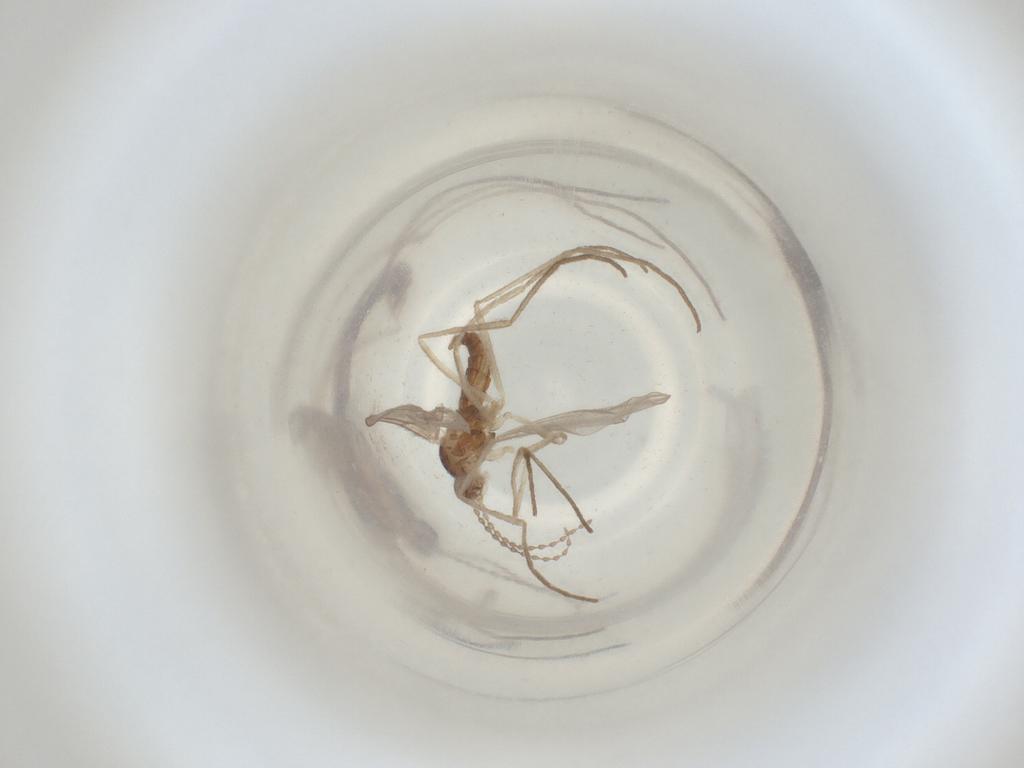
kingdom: Animalia
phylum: Arthropoda
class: Insecta
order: Diptera
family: Cecidomyiidae
